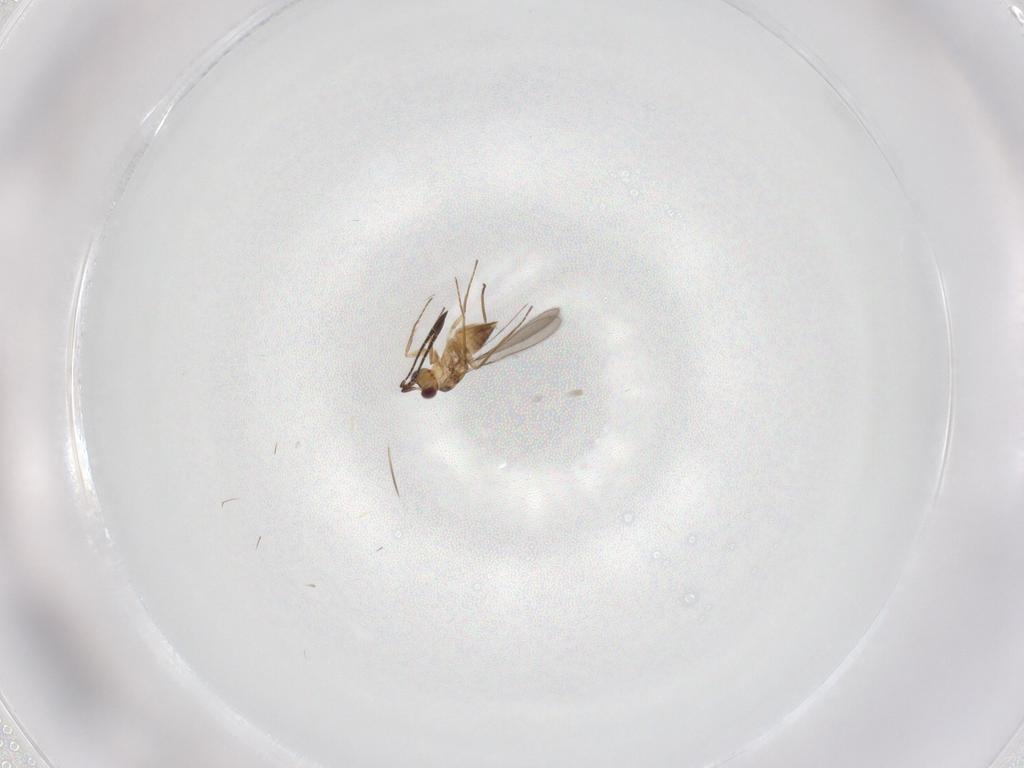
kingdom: Animalia
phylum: Arthropoda
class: Insecta
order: Hymenoptera
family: Mymaridae
